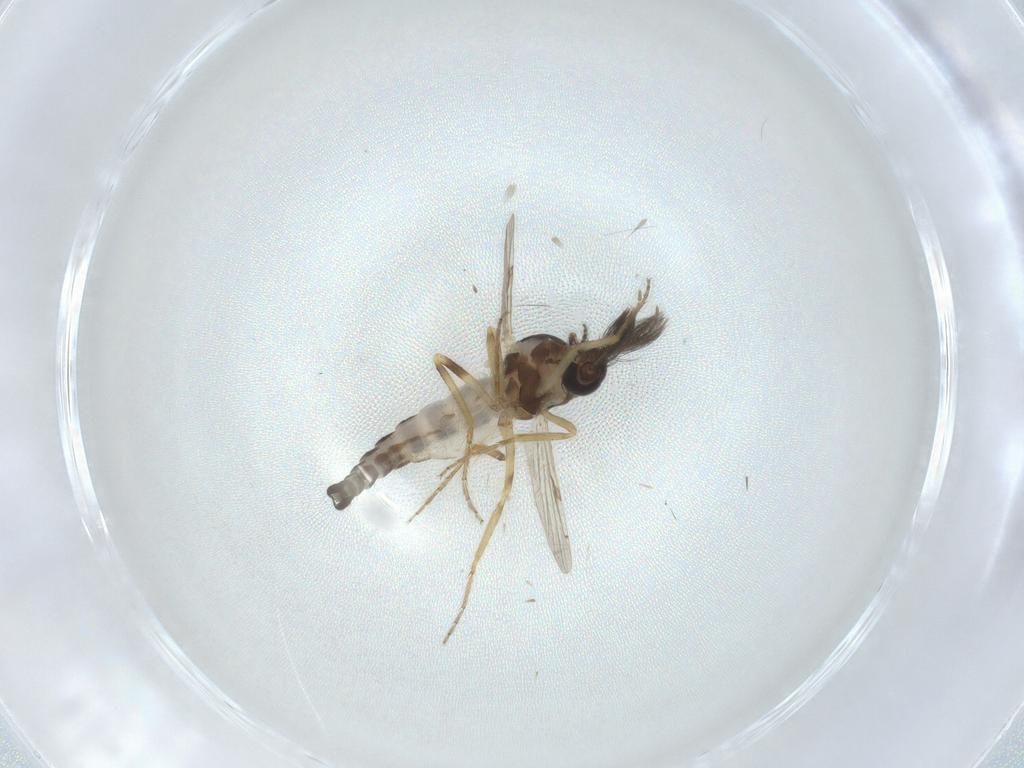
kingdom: Animalia
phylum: Arthropoda
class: Insecta
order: Diptera
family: Ceratopogonidae
